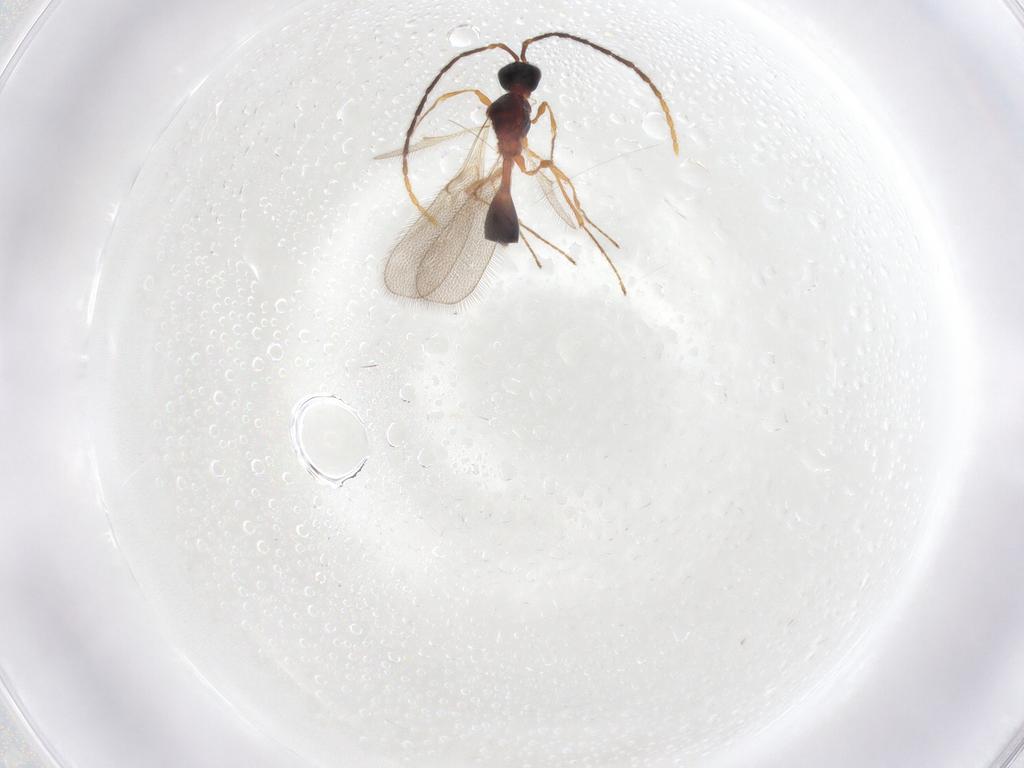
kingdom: Animalia
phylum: Arthropoda
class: Insecta
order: Hymenoptera
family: Diapriidae
